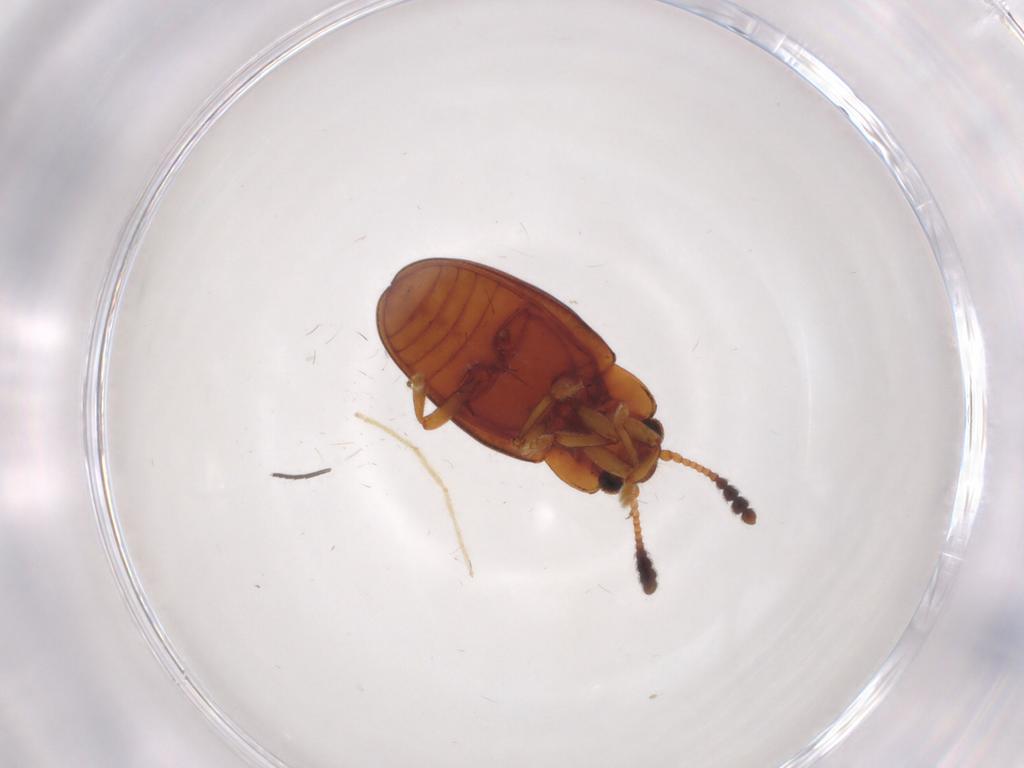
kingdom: Animalia
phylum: Arthropoda
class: Insecta
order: Coleoptera
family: Erotylidae
